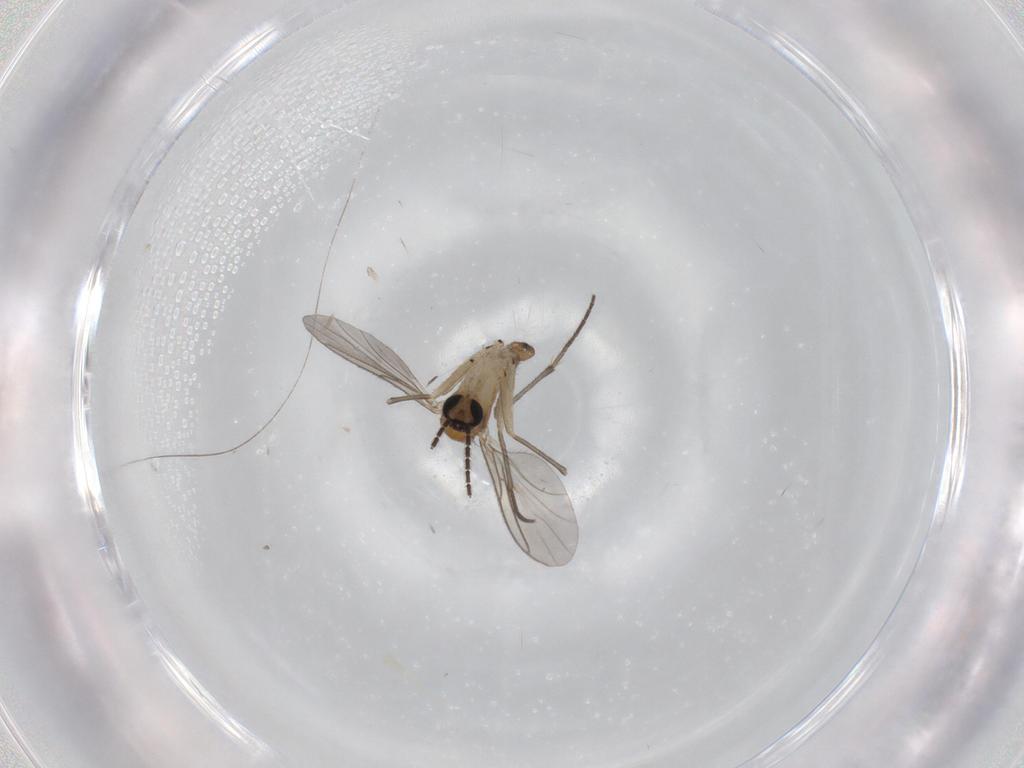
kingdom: Animalia
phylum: Arthropoda
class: Insecta
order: Diptera
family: Sciaridae
